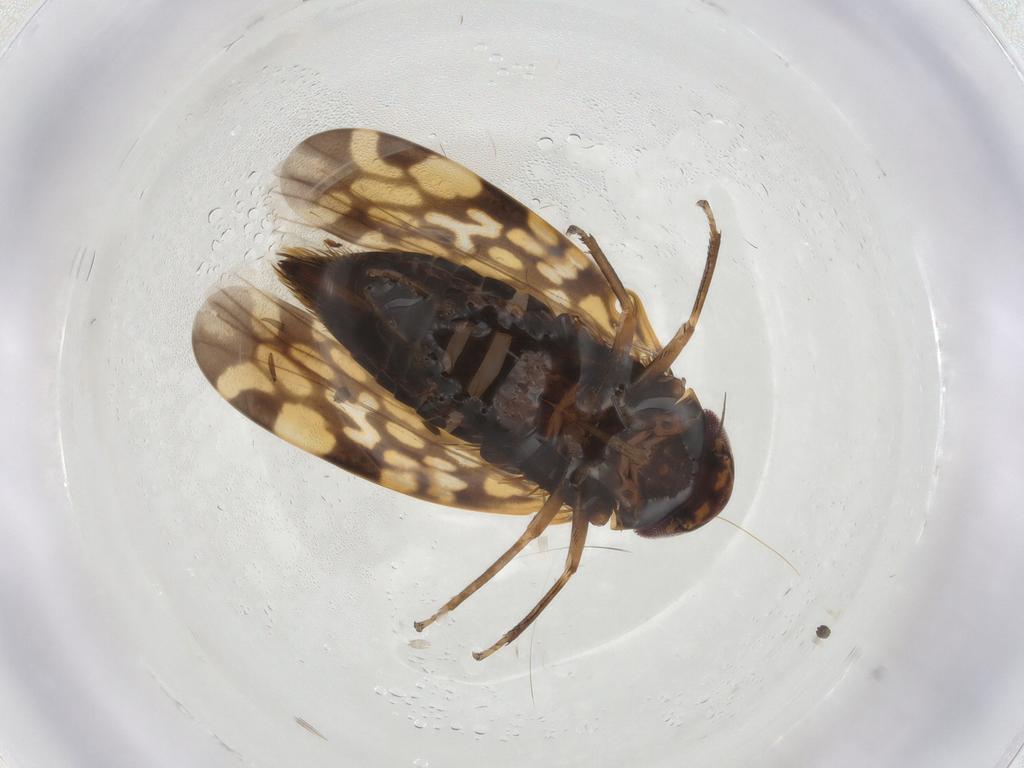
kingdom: Animalia
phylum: Arthropoda
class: Insecta
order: Hemiptera
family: Cicadellidae
